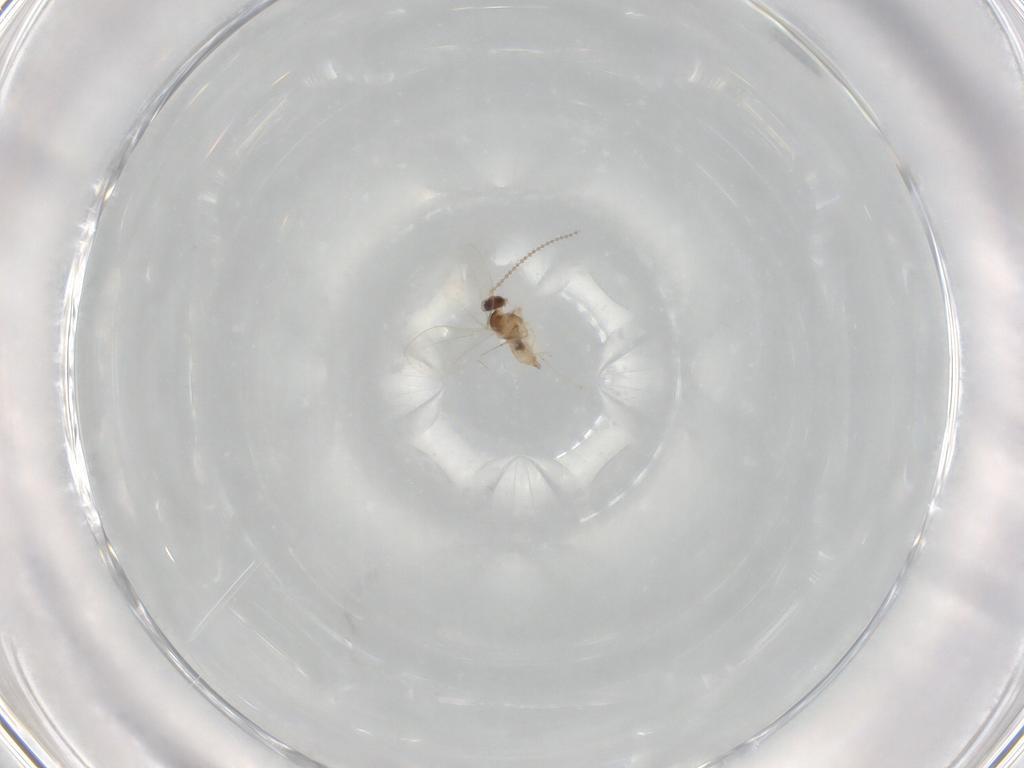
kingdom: Animalia
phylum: Arthropoda
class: Insecta
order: Diptera
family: Cecidomyiidae
